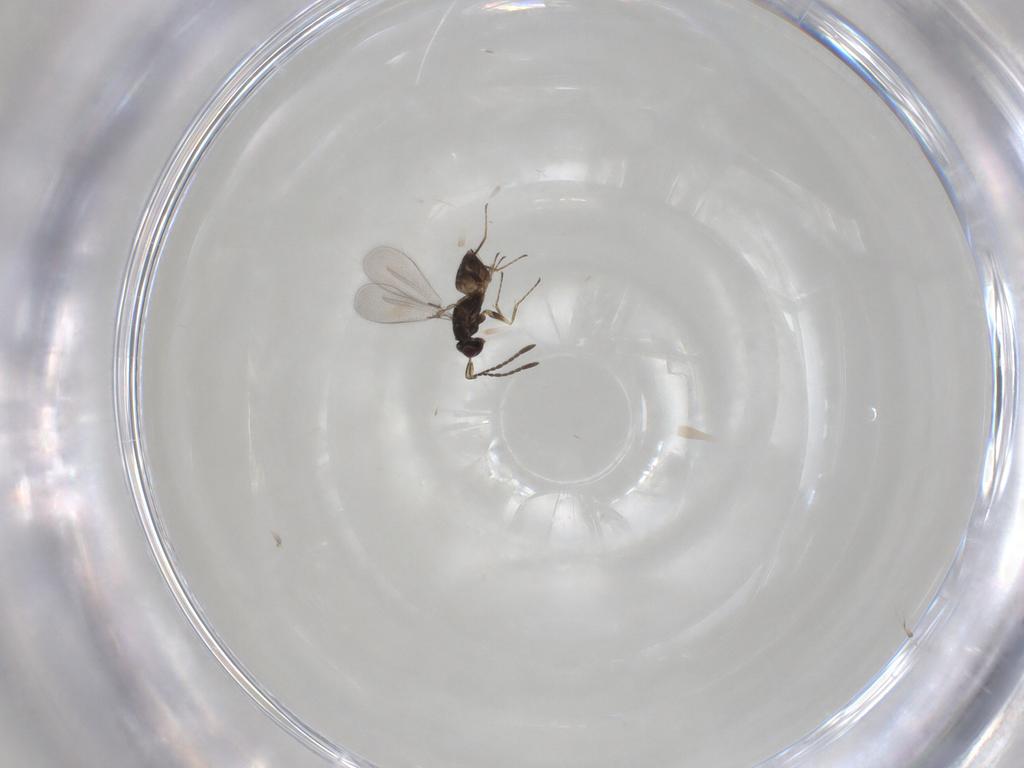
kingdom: Animalia
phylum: Arthropoda
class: Insecta
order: Hymenoptera
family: Mymaridae
